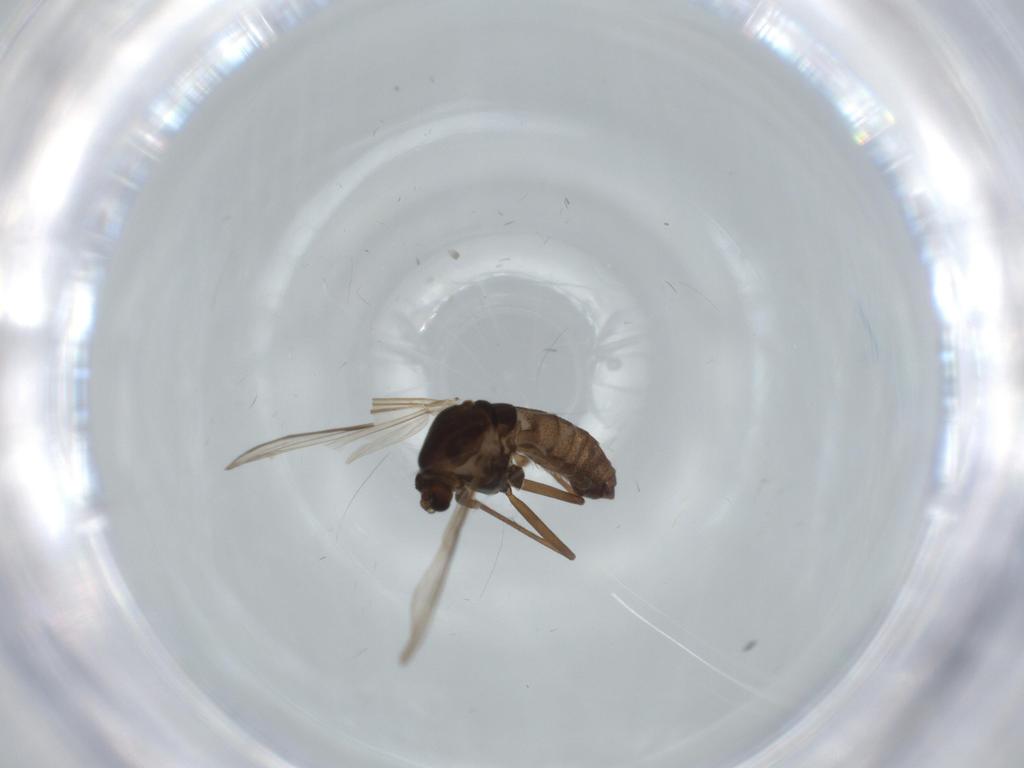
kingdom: Animalia
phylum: Arthropoda
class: Insecta
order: Diptera
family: Chironomidae
